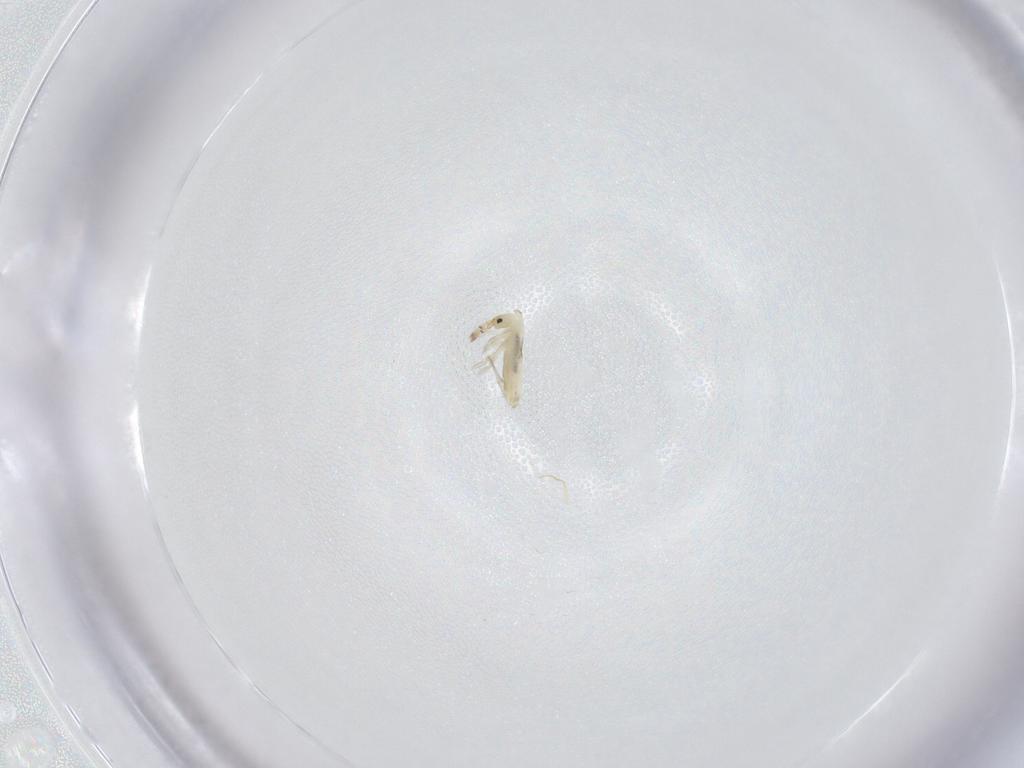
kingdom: Animalia
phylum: Arthropoda
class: Collembola
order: Entomobryomorpha
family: Entomobryidae
